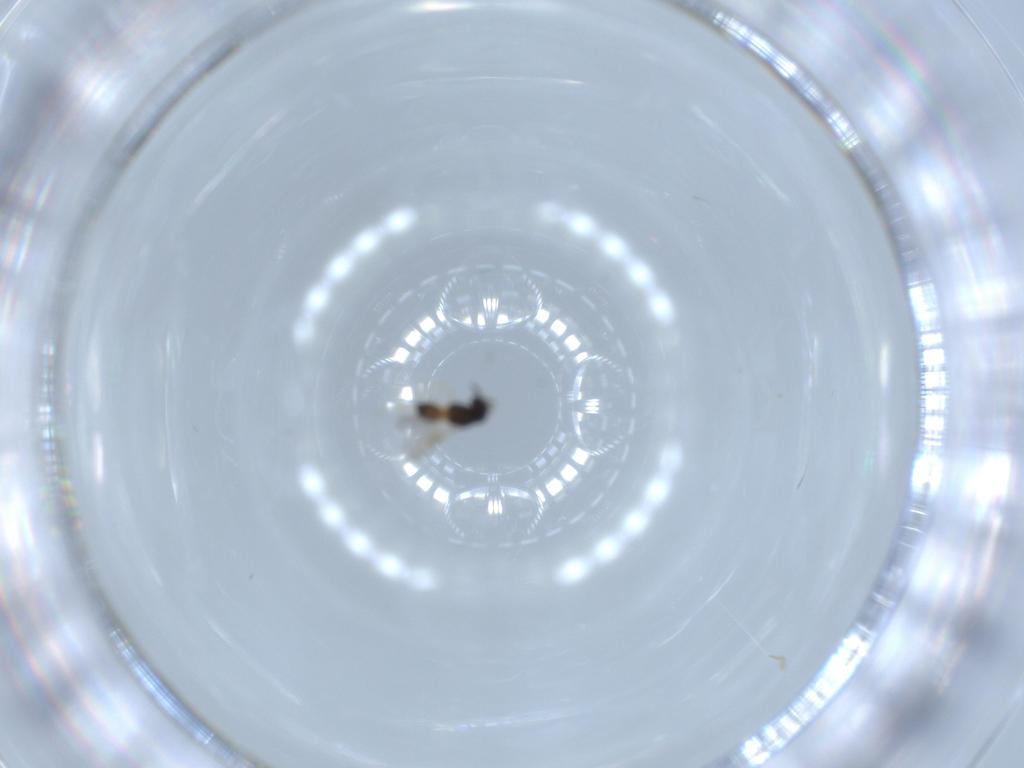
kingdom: Animalia
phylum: Arthropoda
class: Insecta
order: Hymenoptera
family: Scelionidae
